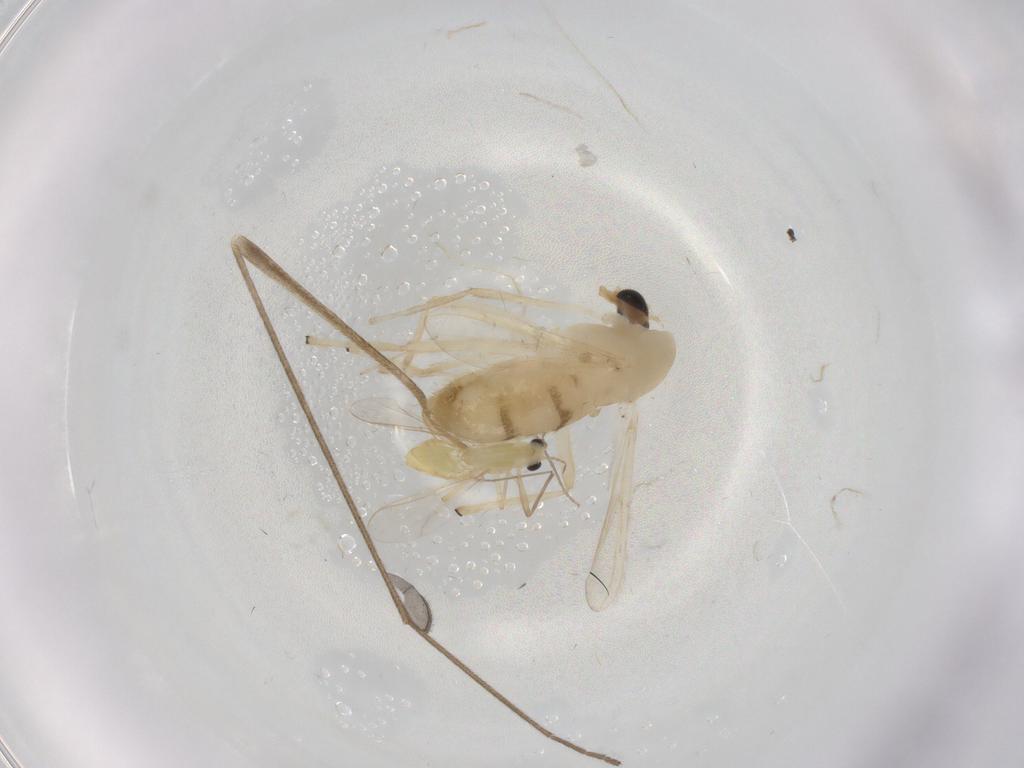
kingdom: Animalia
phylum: Arthropoda
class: Insecta
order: Diptera
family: Chironomidae
